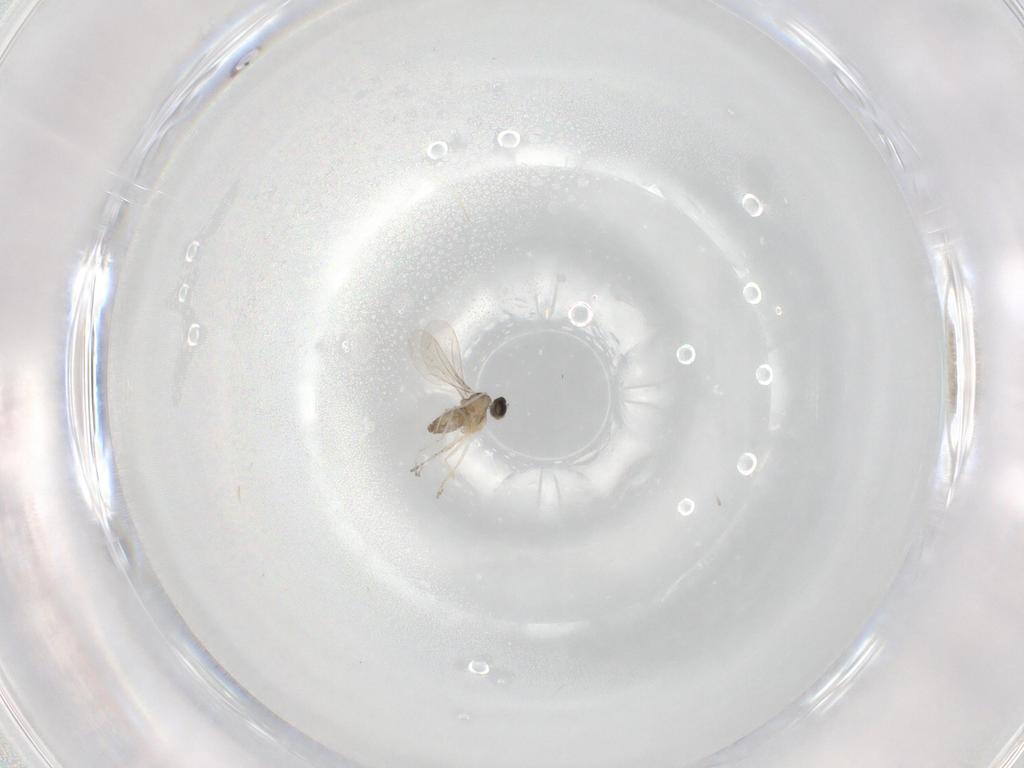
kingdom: Animalia
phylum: Arthropoda
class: Insecta
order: Diptera
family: Cecidomyiidae
